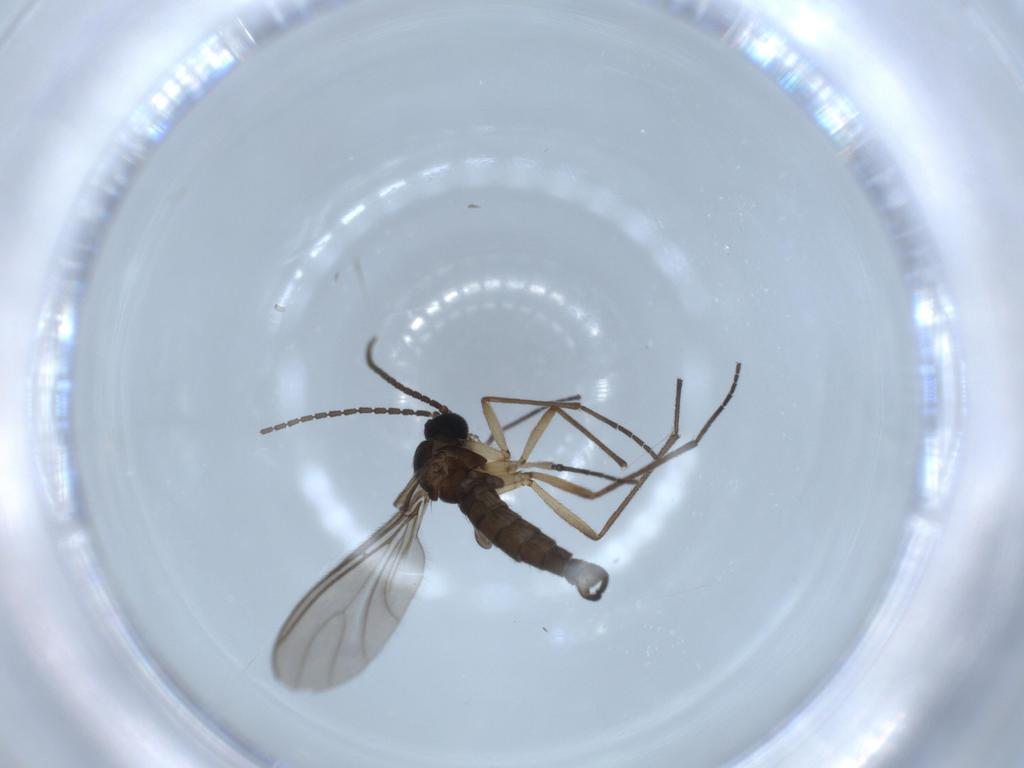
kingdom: Animalia
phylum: Arthropoda
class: Insecta
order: Diptera
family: Sciaridae
